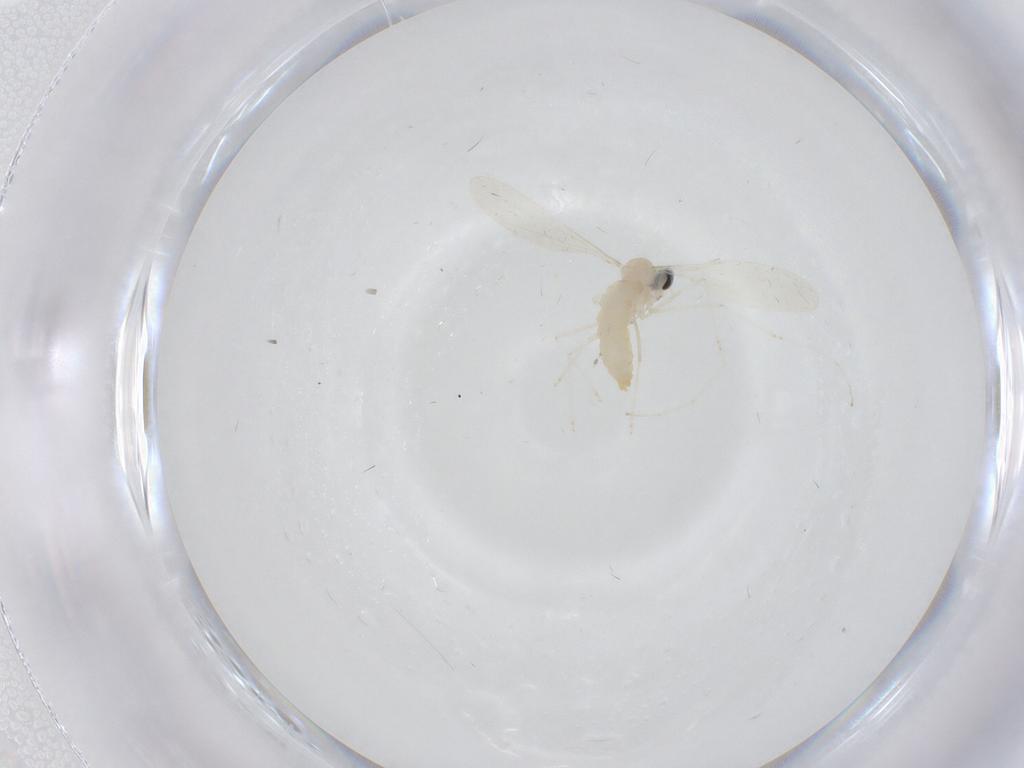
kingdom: Animalia
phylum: Arthropoda
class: Insecta
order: Diptera
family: Cecidomyiidae
